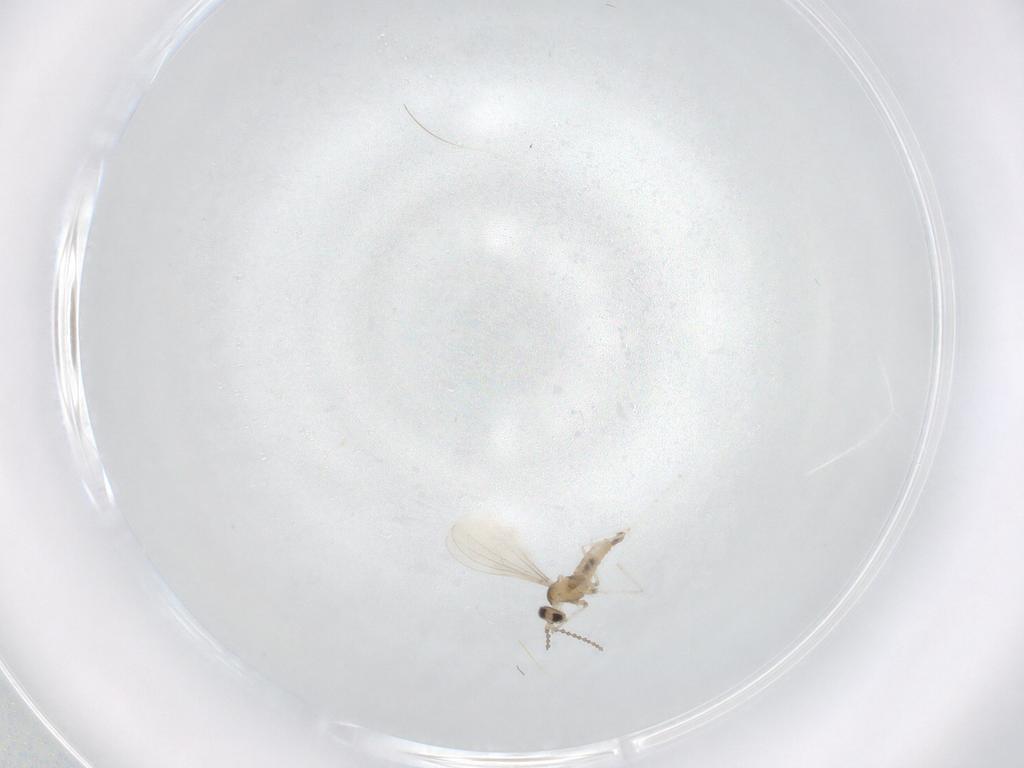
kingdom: Animalia
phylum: Arthropoda
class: Insecta
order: Diptera
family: Cecidomyiidae
